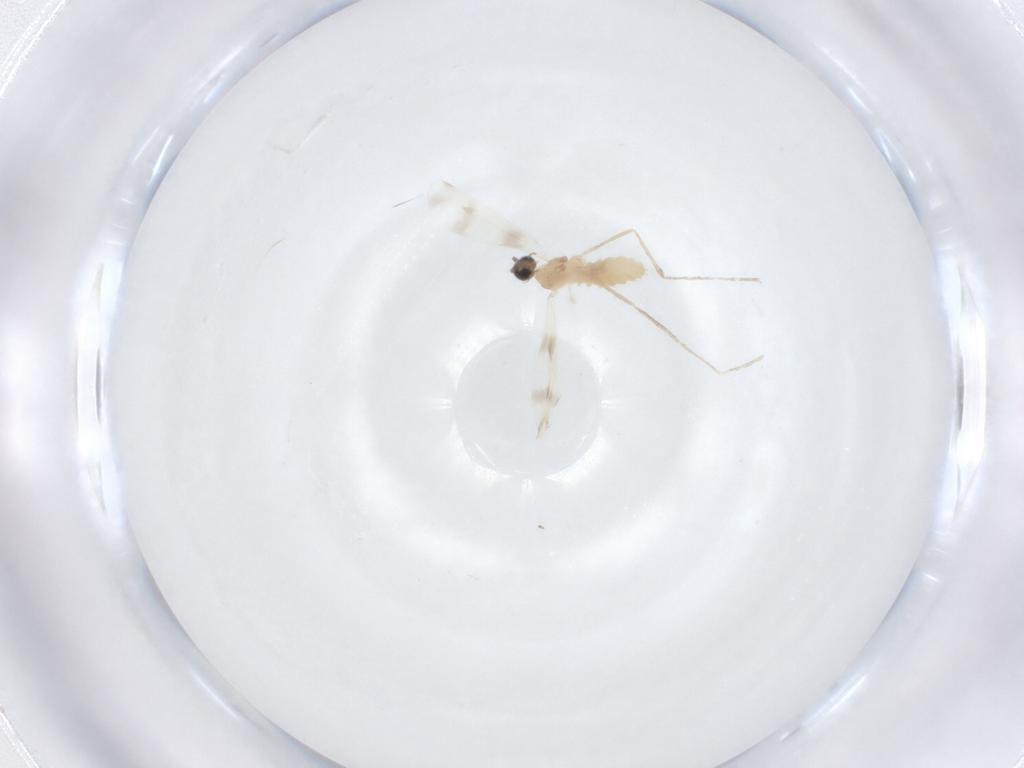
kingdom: Animalia
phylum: Arthropoda
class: Insecta
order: Diptera
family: Cecidomyiidae
